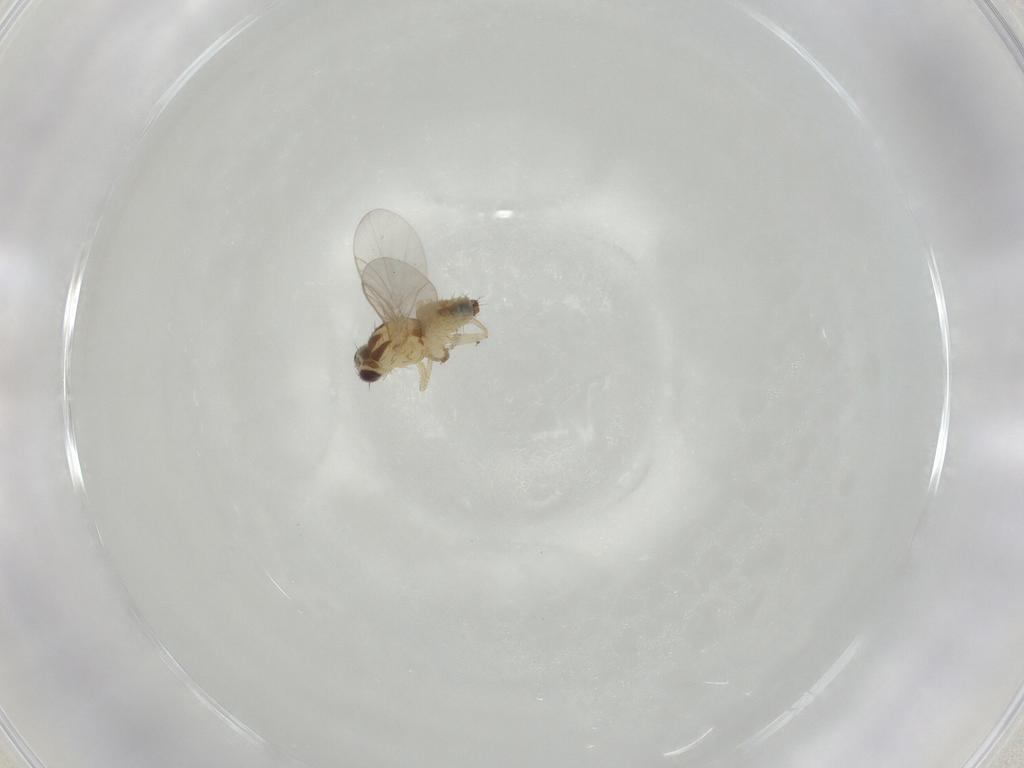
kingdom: Animalia
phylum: Arthropoda
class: Insecta
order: Diptera
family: Agromyzidae
